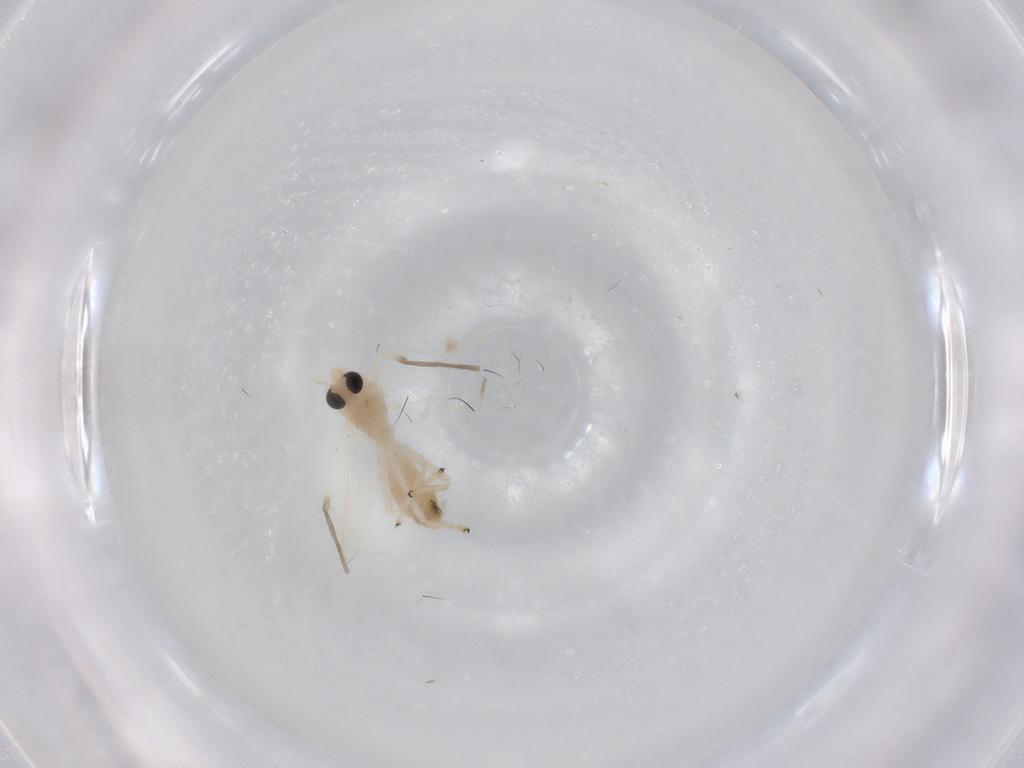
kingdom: Animalia
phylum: Arthropoda
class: Insecta
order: Diptera
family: Chironomidae
